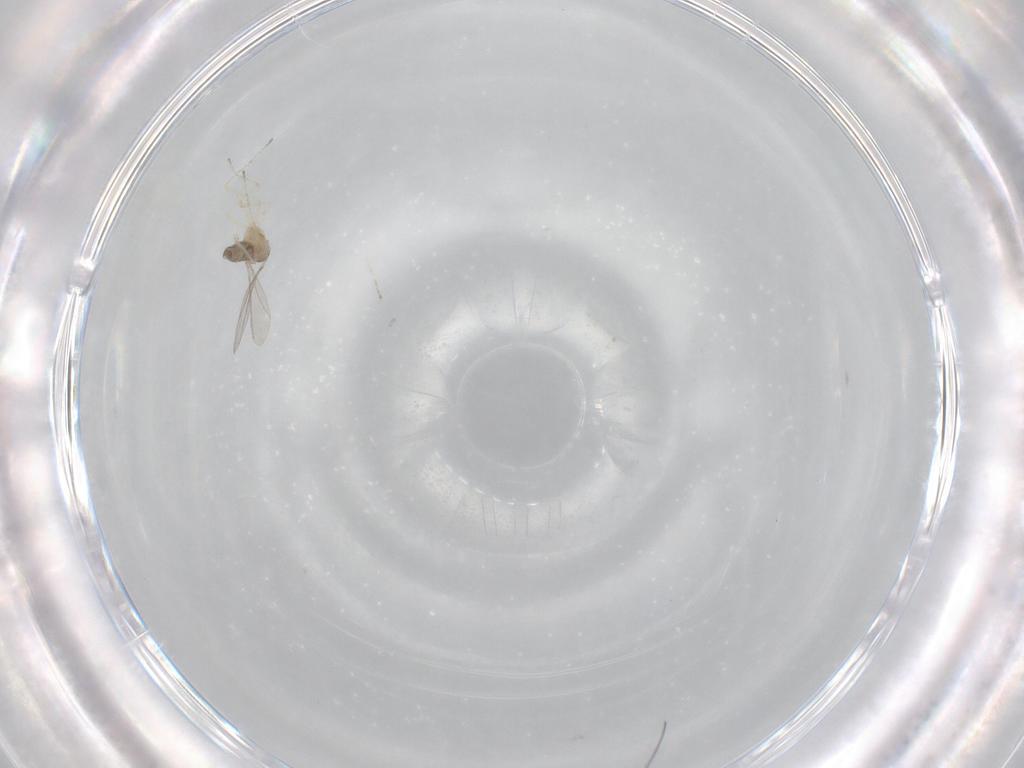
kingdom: Animalia
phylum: Arthropoda
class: Insecta
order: Diptera
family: Cecidomyiidae
